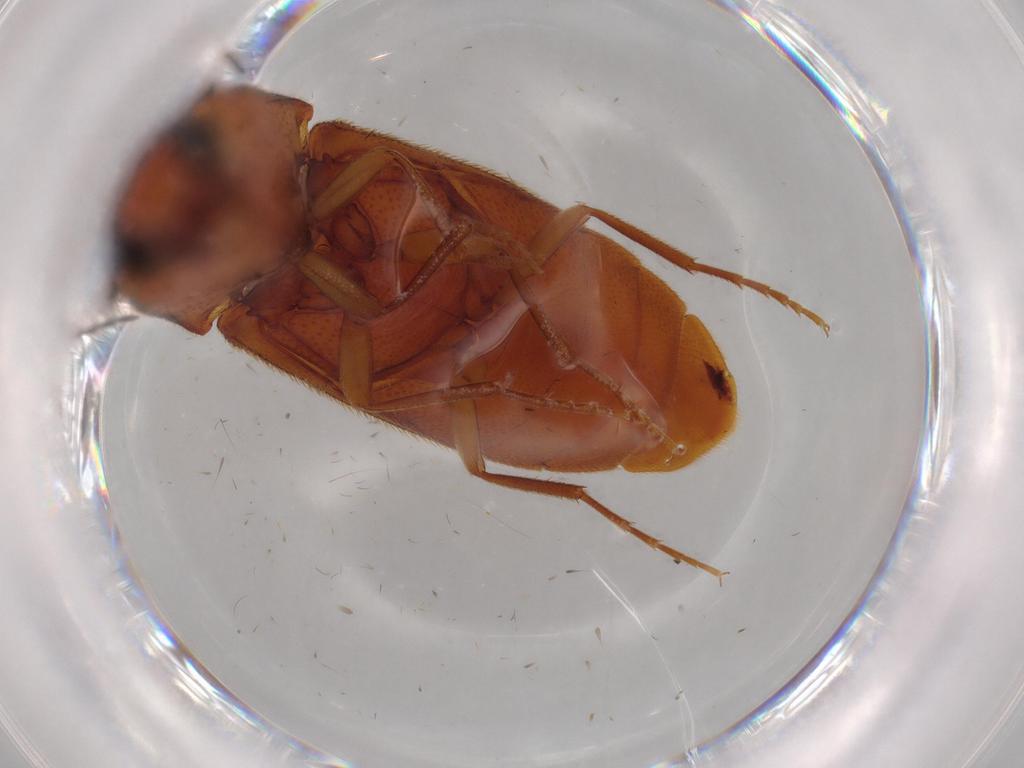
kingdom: Animalia
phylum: Arthropoda
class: Insecta
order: Coleoptera
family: Elateridae
